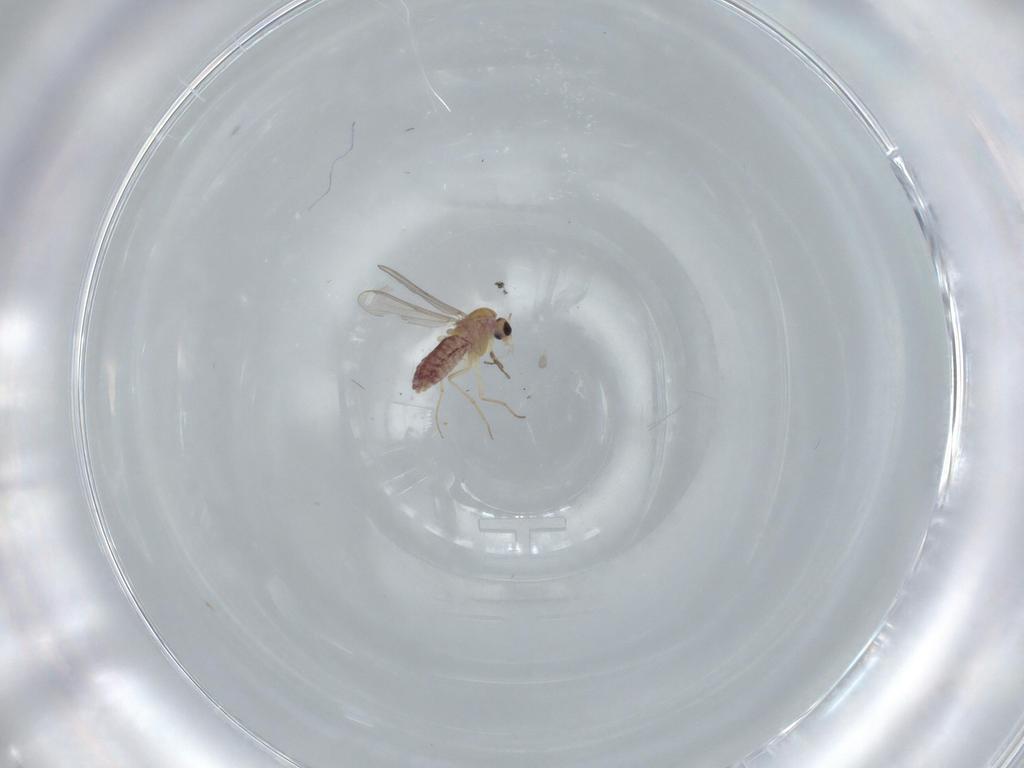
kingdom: Animalia
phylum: Arthropoda
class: Insecta
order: Diptera
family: Chironomidae
